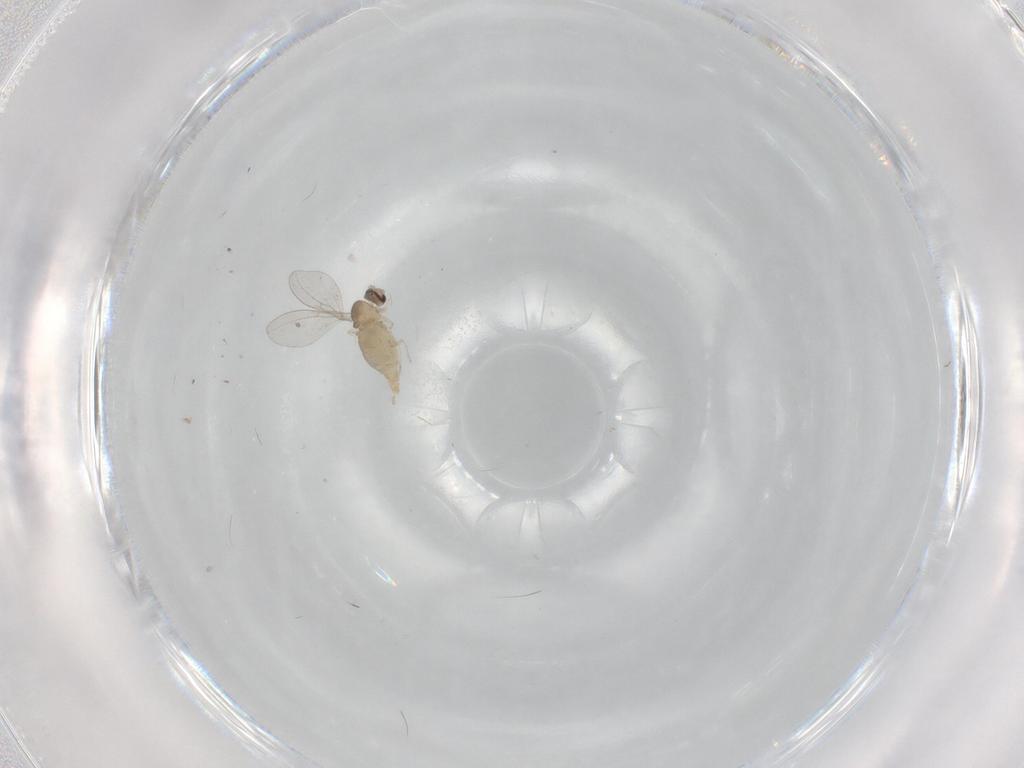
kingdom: Animalia
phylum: Arthropoda
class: Insecta
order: Diptera
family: Cecidomyiidae
